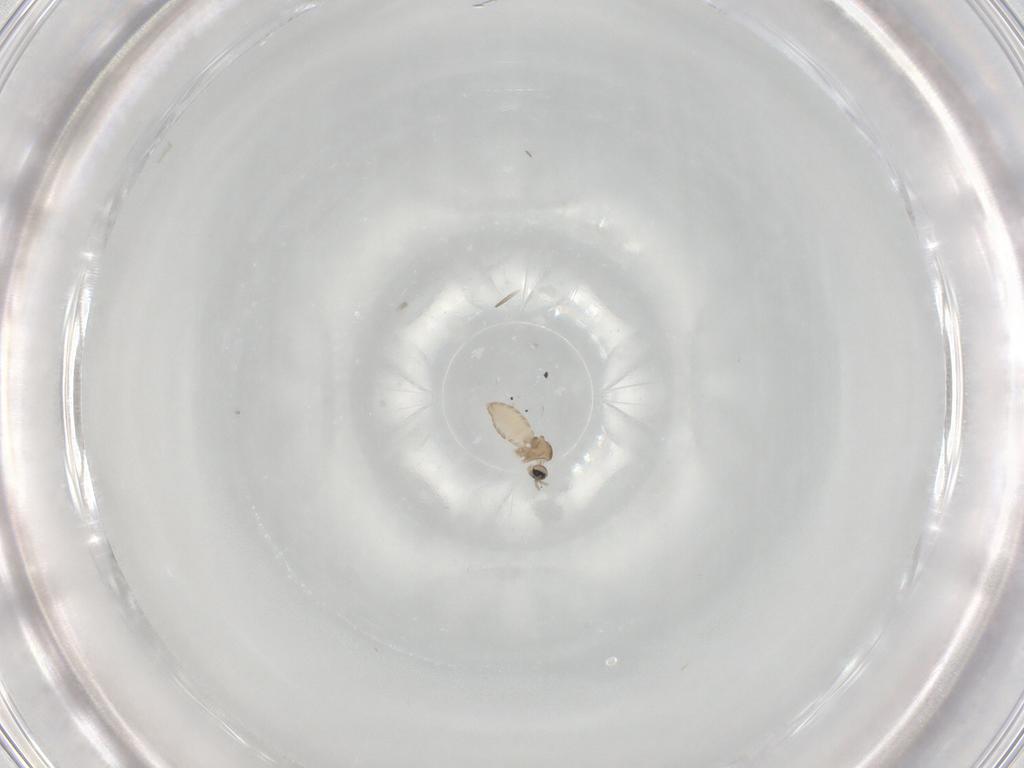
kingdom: Animalia
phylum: Arthropoda
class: Insecta
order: Diptera
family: Cecidomyiidae
